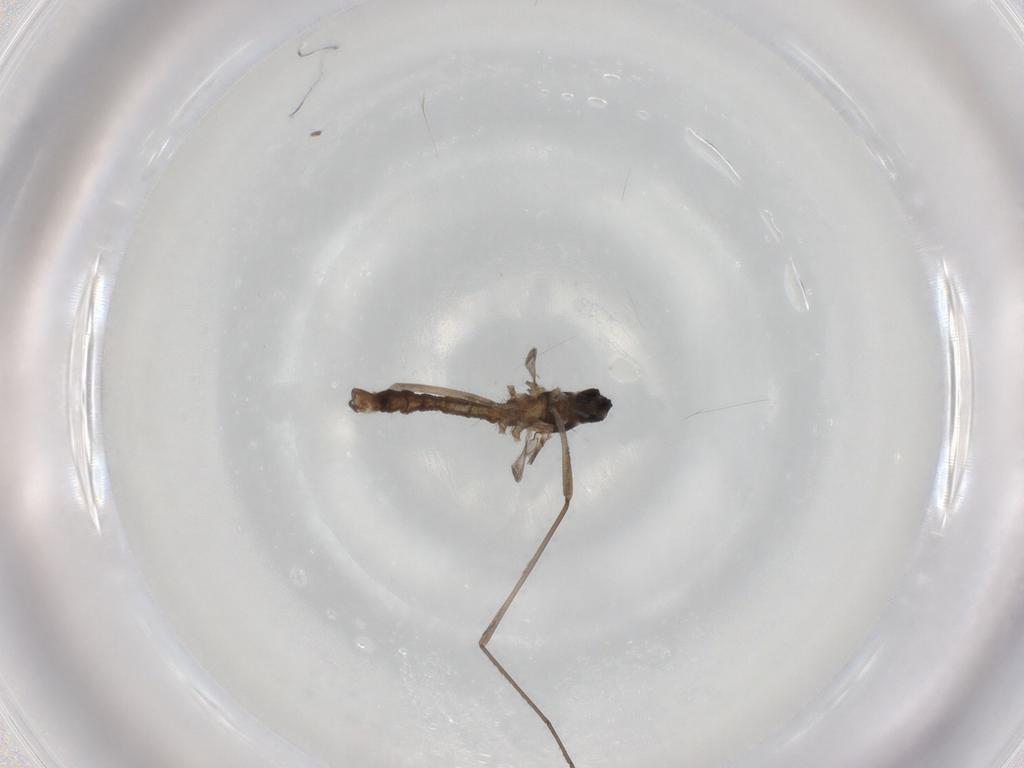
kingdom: Animalia
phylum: Arthropoda
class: Insecta
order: Diptera
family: Cecidomyiidae
